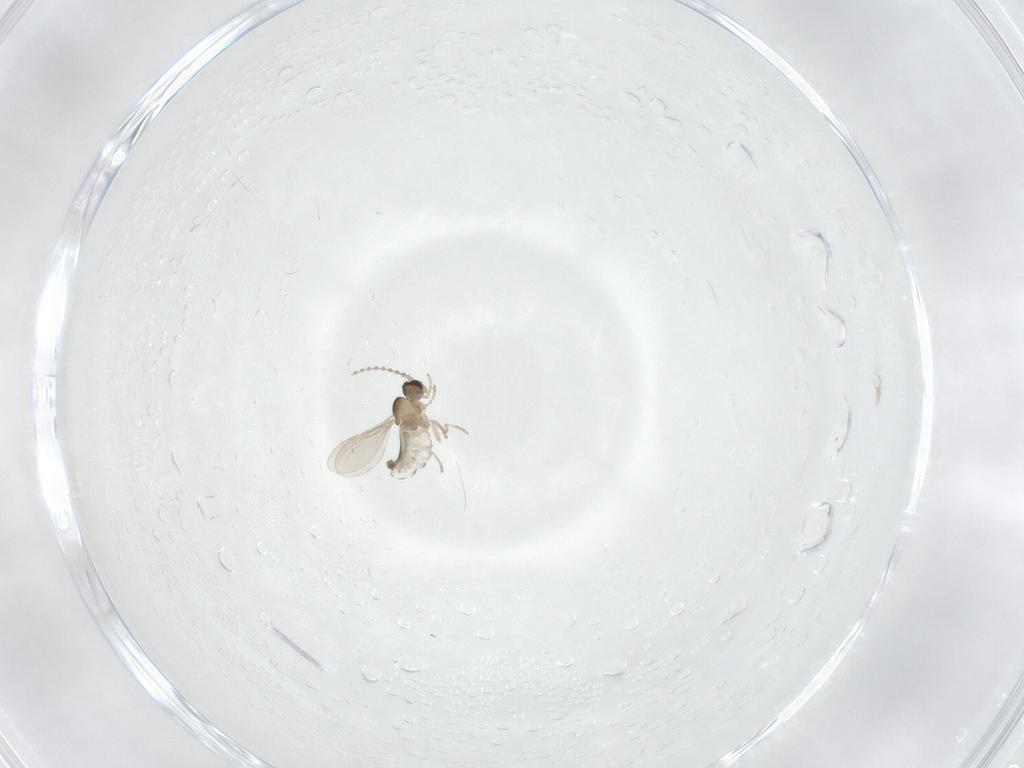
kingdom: Animalia
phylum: Arthropoda
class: Insecta
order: Diptera
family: Cecidomyiidae
